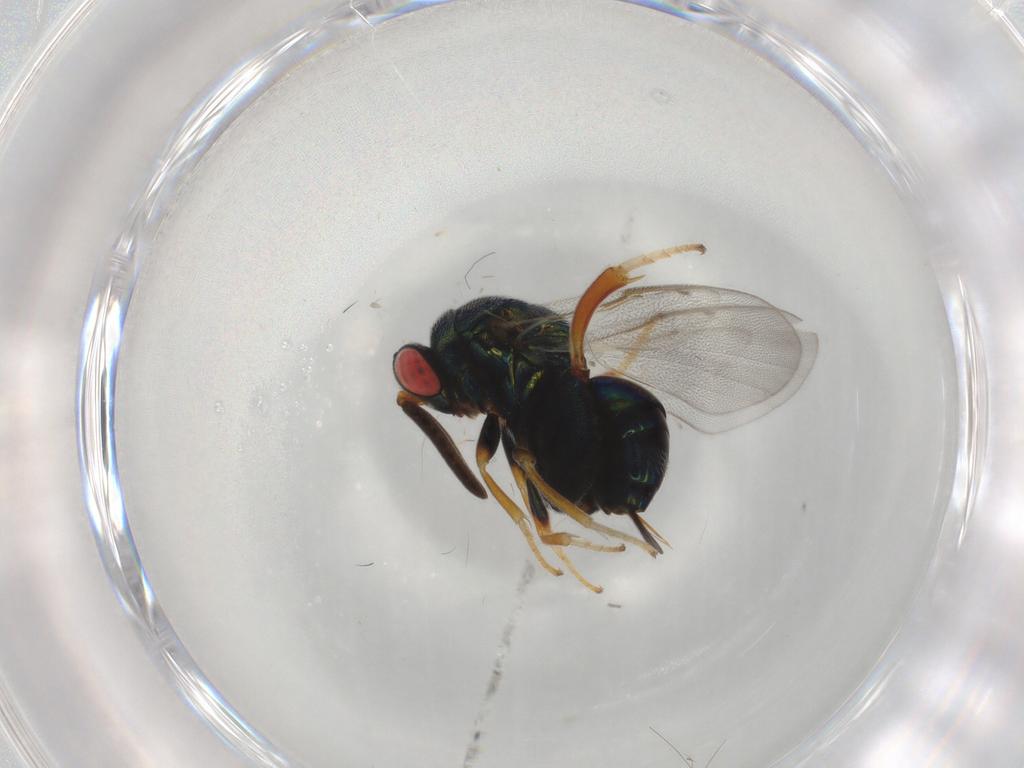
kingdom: Animalia
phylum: Arthropoda
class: Insecta
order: Hymenoptera
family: Torymidae
